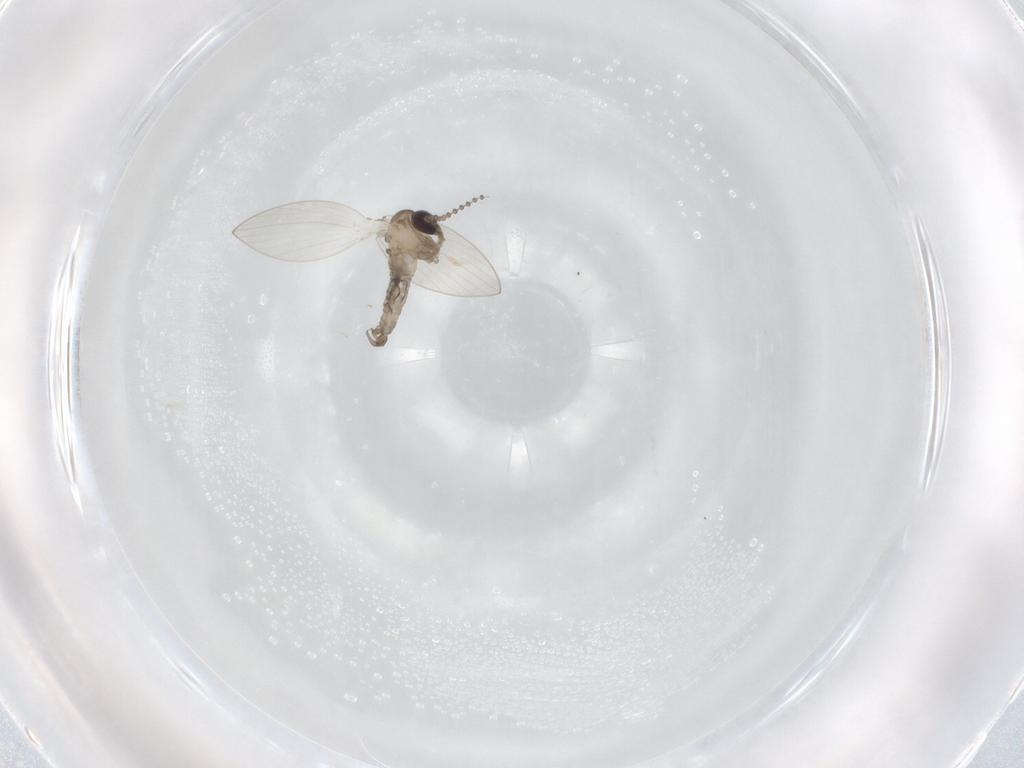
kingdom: Animalia
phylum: Arthropoda
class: Insecta
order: Diptera
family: Psychodidae
